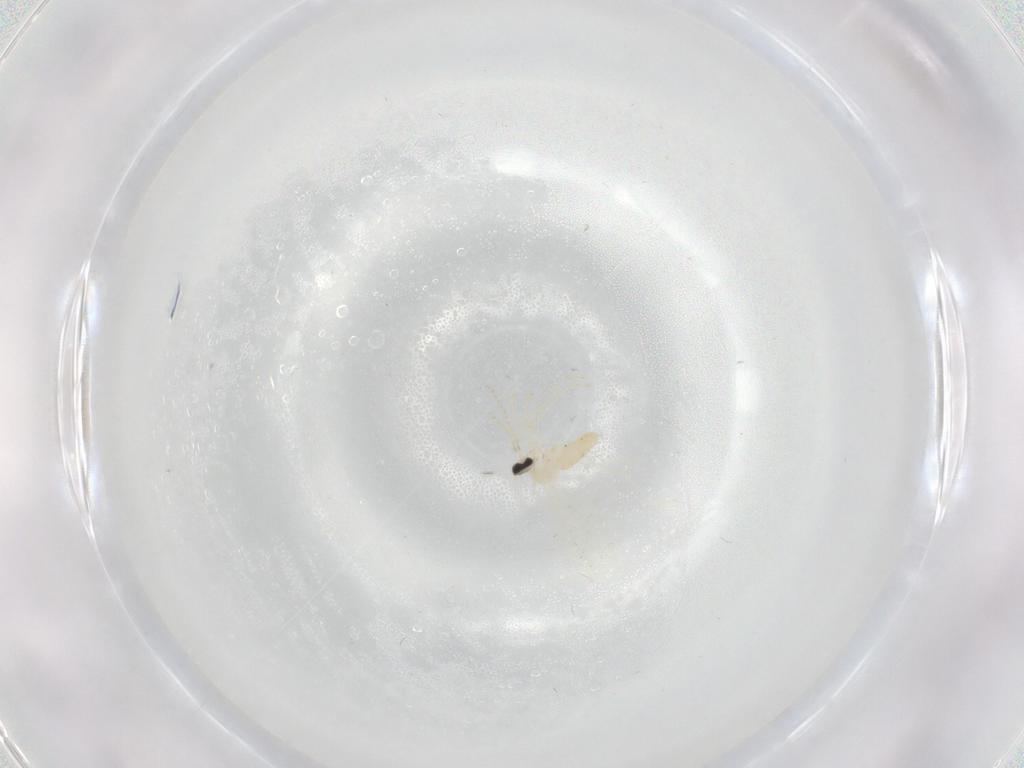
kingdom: Animalia
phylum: Arthropoda
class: Insecta
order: Diptera
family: Cecidomyiidae
